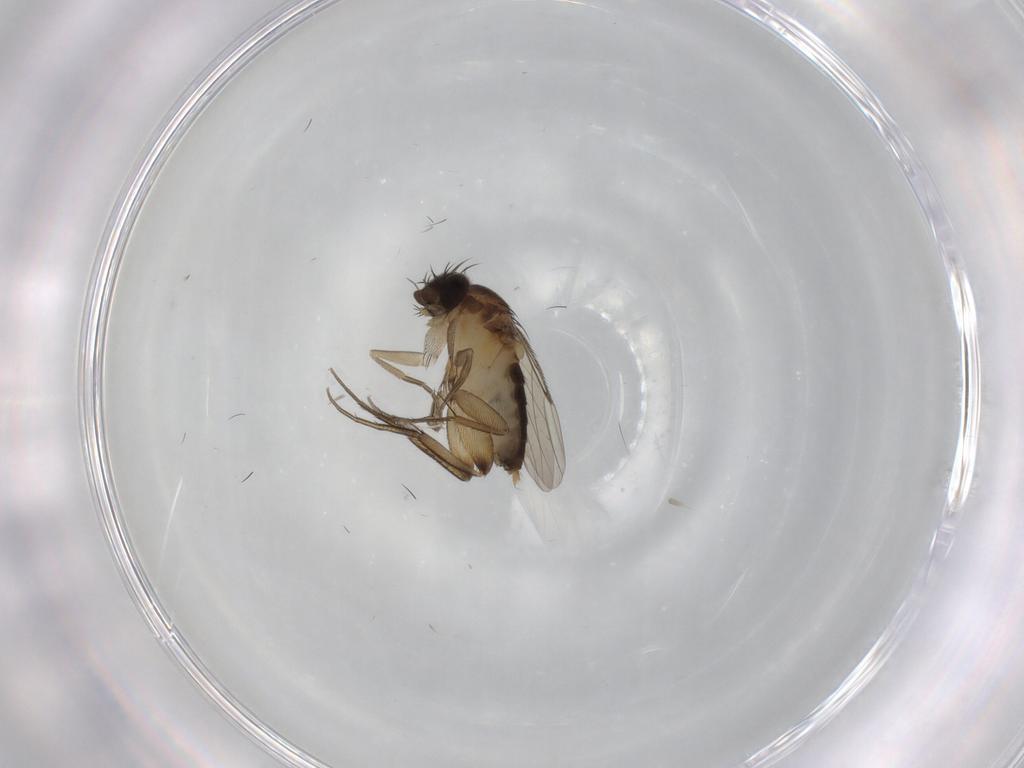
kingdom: Animalia
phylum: Arthropoda
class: Insecta
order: Diptera
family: Phoridae
